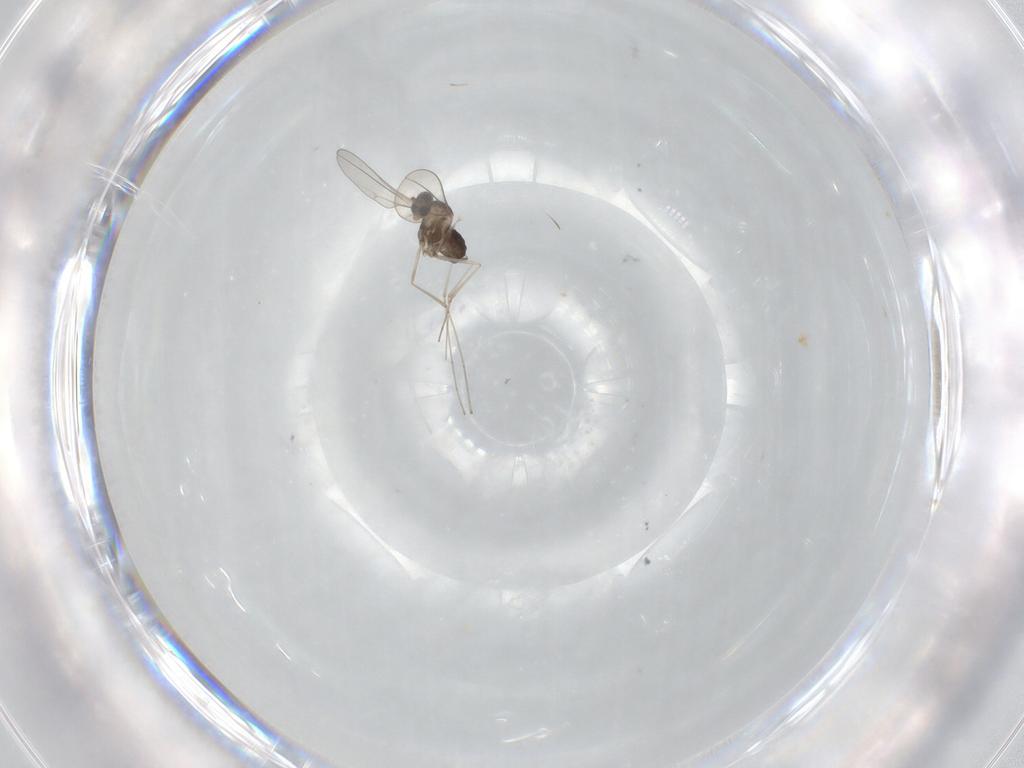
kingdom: Animalia
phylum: Arthropoda
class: Insecta
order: Diptera
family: Cecidomyiidae
